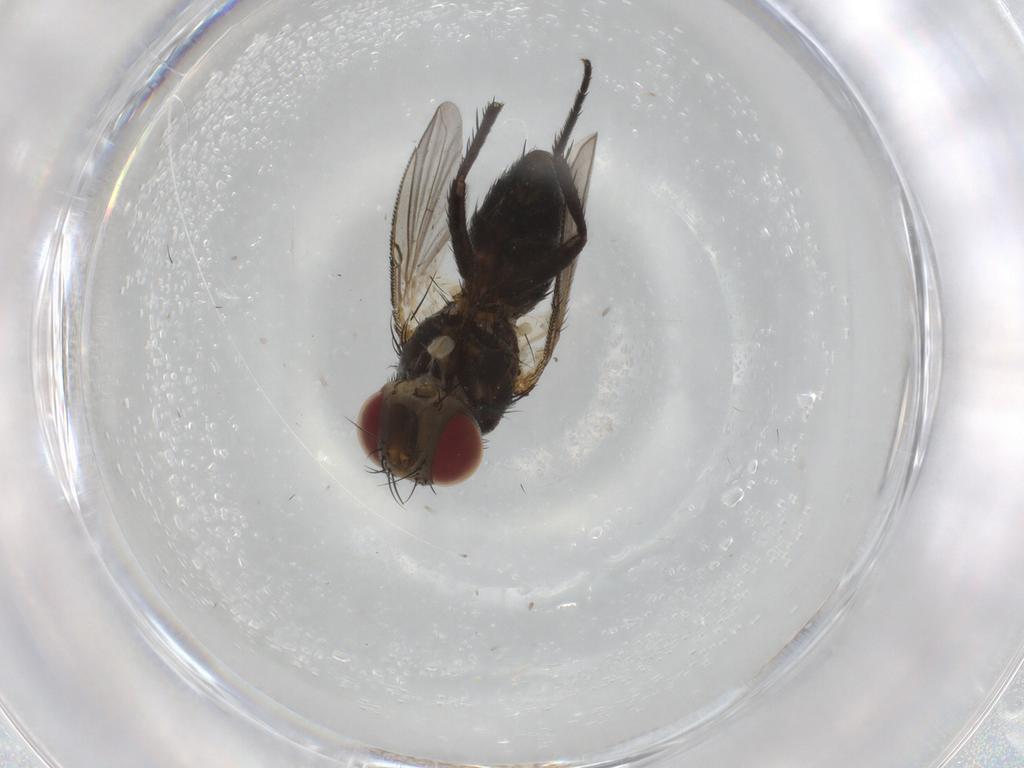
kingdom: Animalia
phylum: Arthropoda
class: Insecta
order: Diptera
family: Tachinidae
